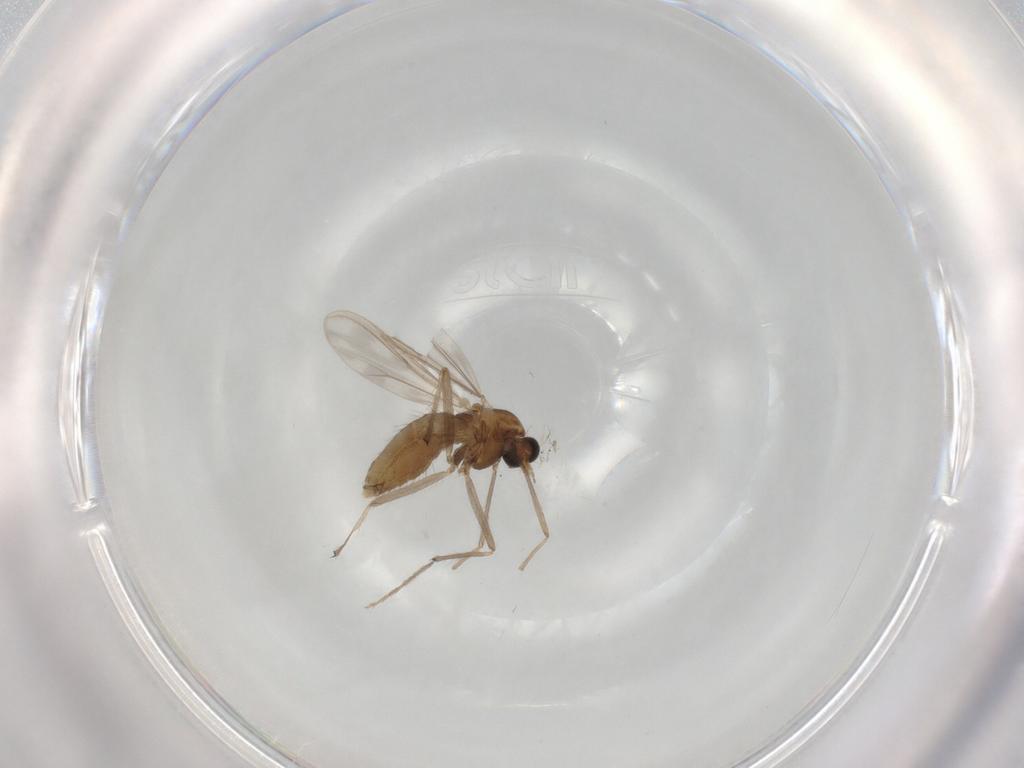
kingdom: Animalia
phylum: Arthropoda
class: Insecta
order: Diptera
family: Chironomidae
